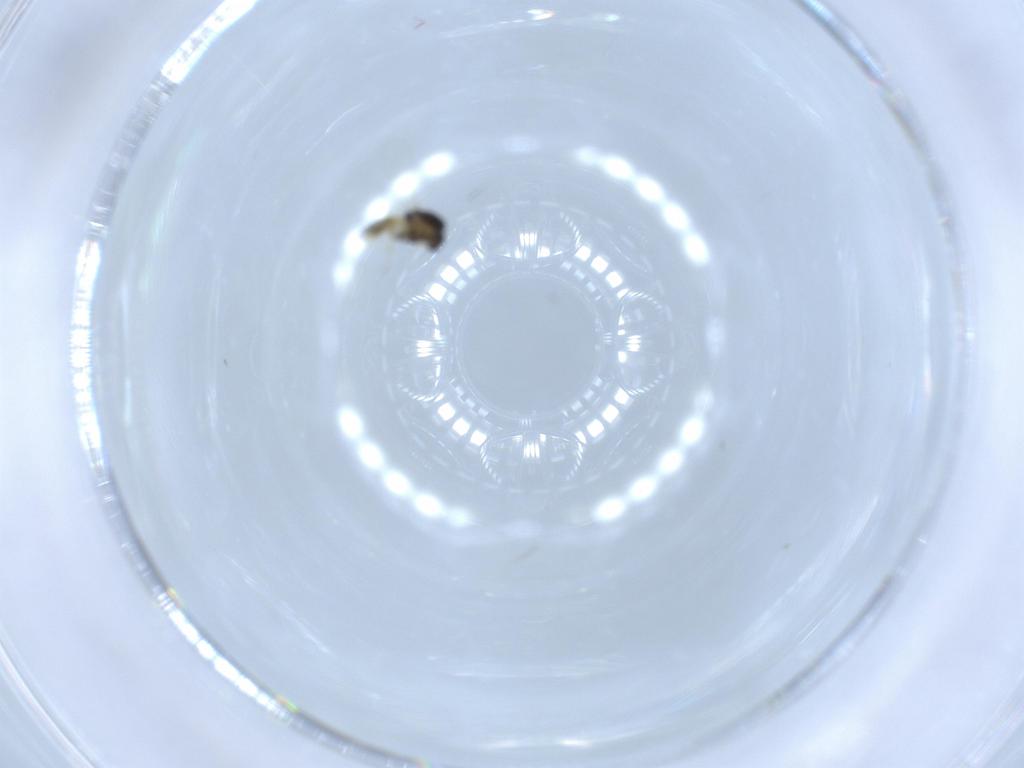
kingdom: Animalia
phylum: Arthropoda
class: Insecta
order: Diptera
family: Chironomidae
